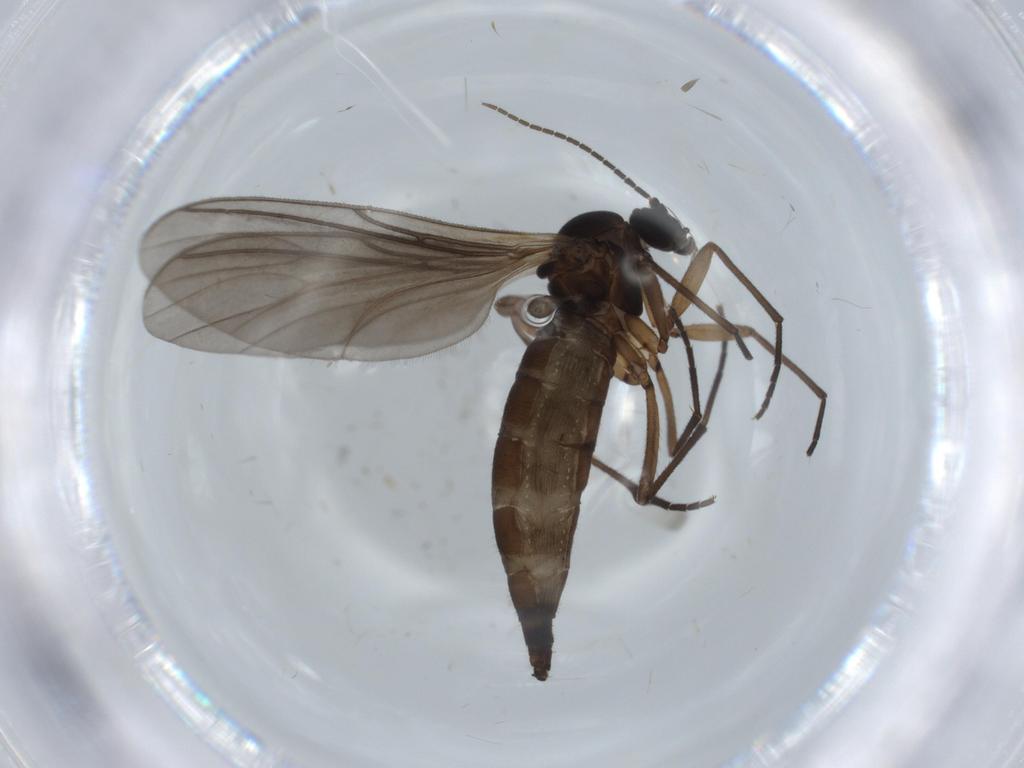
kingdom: Animalia
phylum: Arthropoda
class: Insecta
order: Diptera
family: Sciaridae
